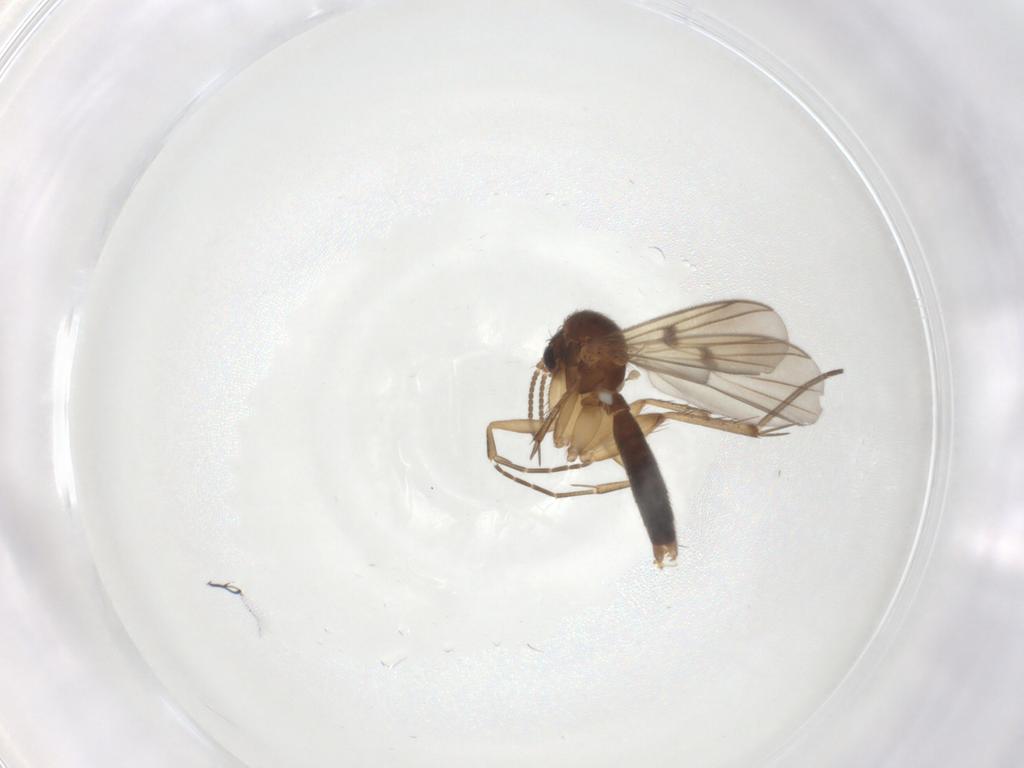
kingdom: Animalia
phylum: Arthropoda
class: Insecta
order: Diptera
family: Cecidomyiidae
